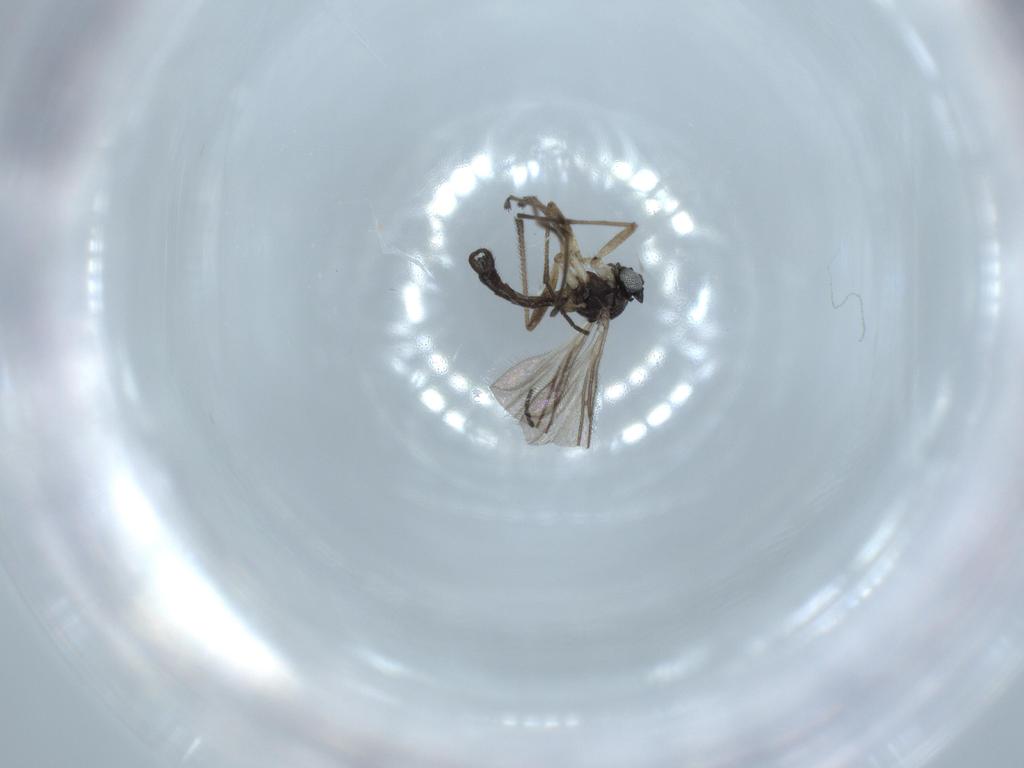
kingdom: Animalia
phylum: Arthropoda
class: Insecta
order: Diptera
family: Sciaridae
